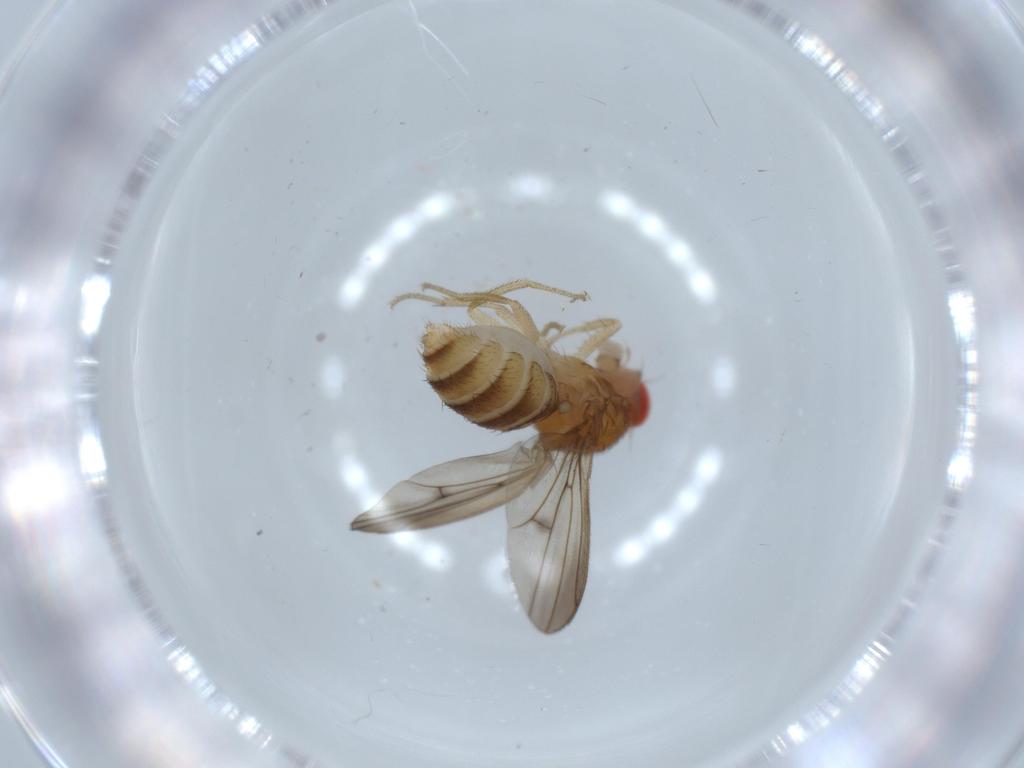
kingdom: Animalia
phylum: Arthropoda
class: Insecta
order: Diptera
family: Drosophilidae
